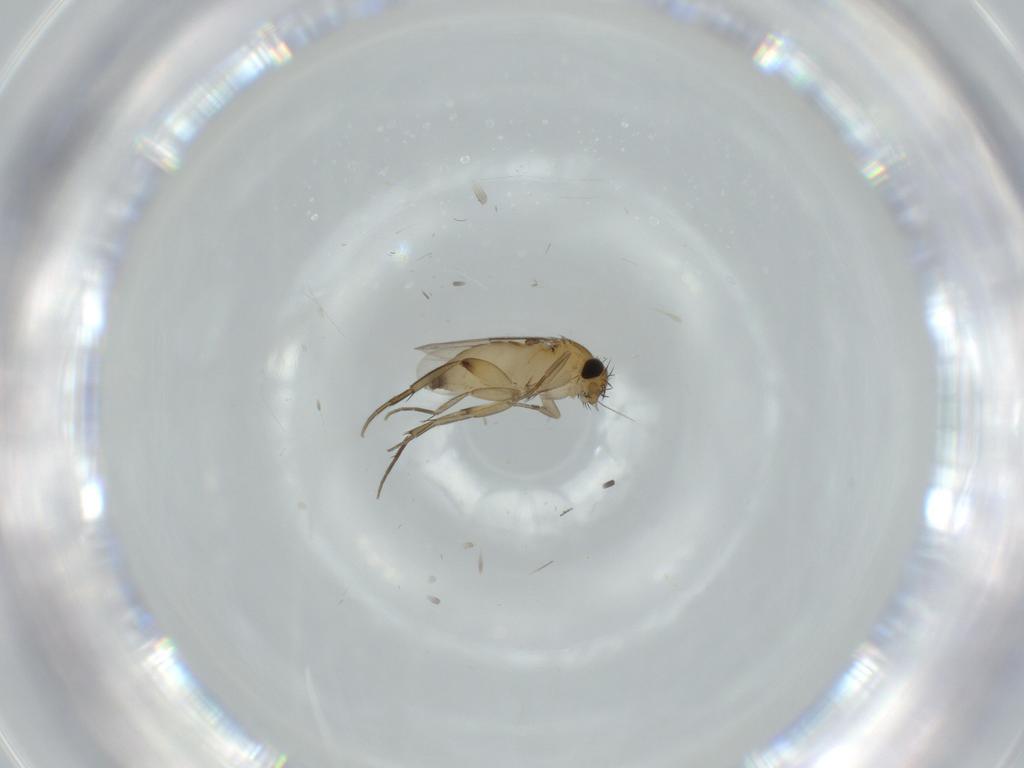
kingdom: Animalia
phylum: Arthropoda
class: Insecta
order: Diptera
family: Phoridae
